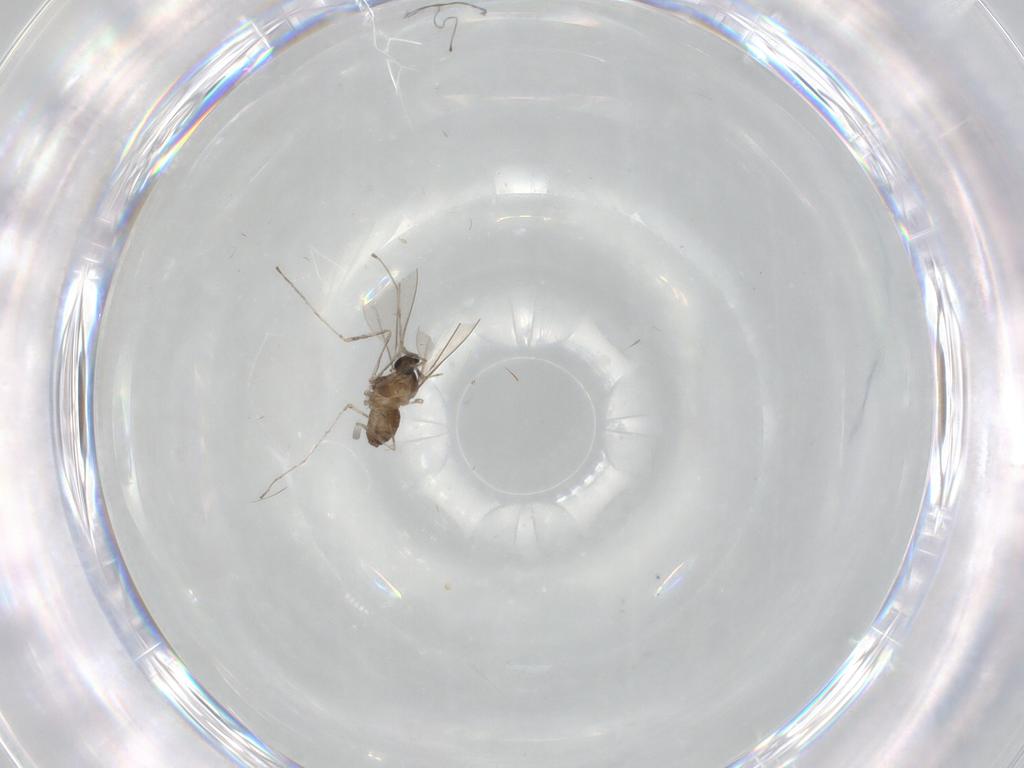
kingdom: Animalia
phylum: Arthropoda
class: Insecta
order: Diptera
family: Cecidomyiidae
